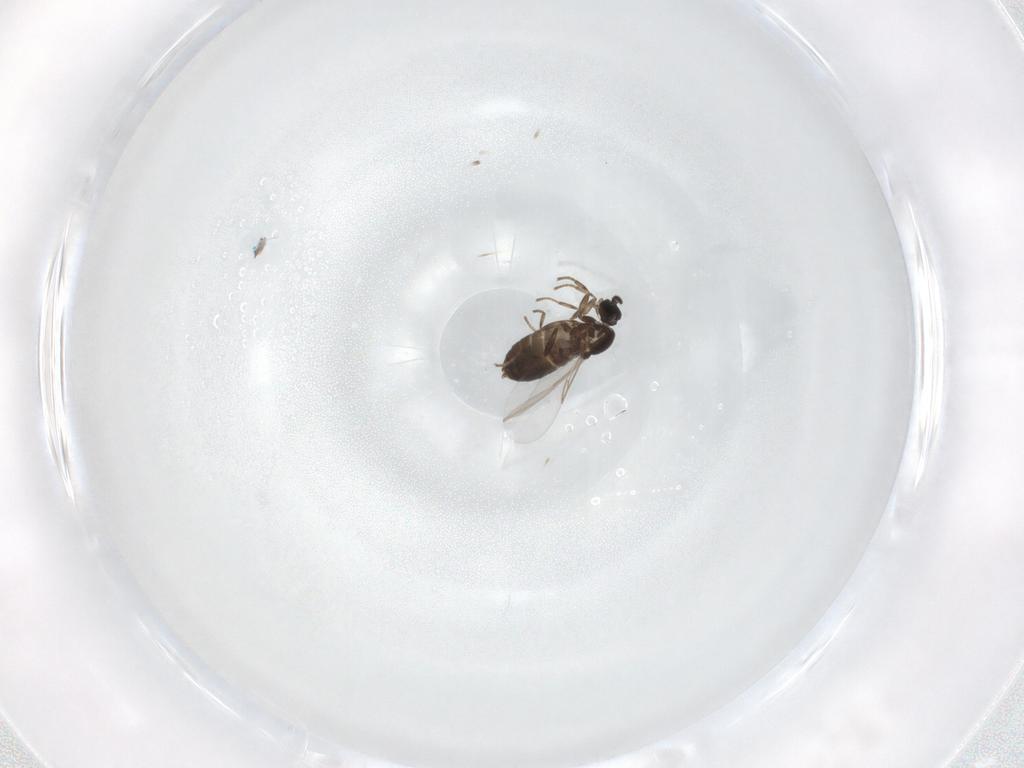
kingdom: Animalia
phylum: Arthropoda
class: Insecta
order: Diptera
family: Scatopsidae
